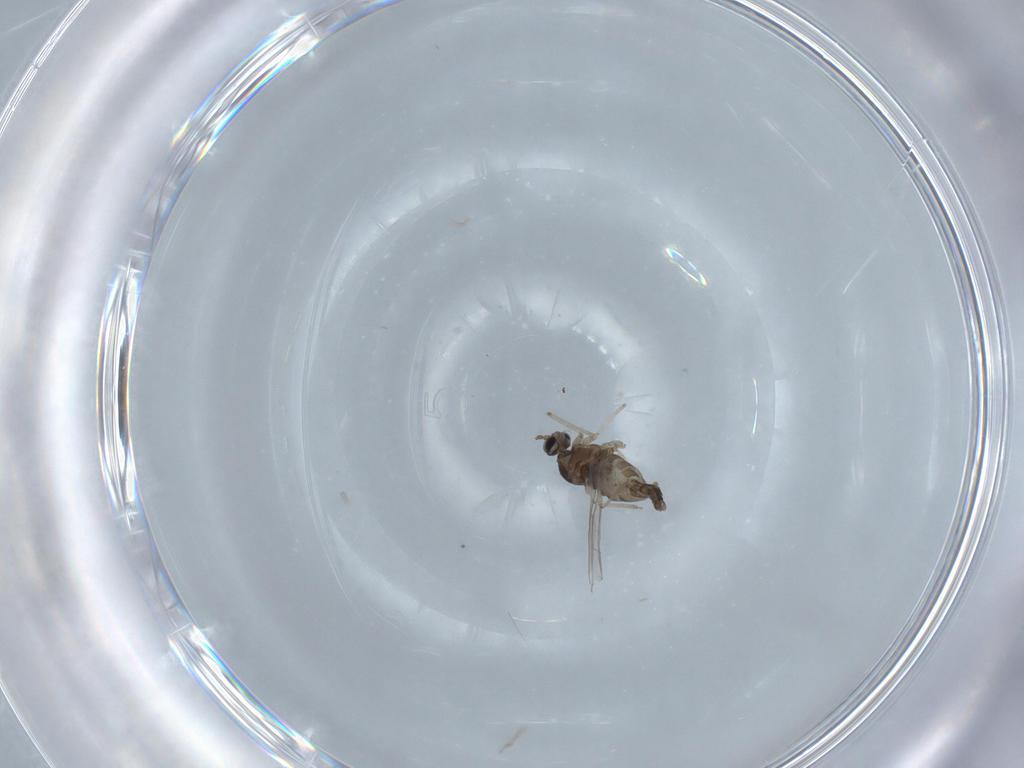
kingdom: Animalia
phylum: Arthropoda
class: Insecta
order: Diptera
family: Cecidomyiidae
